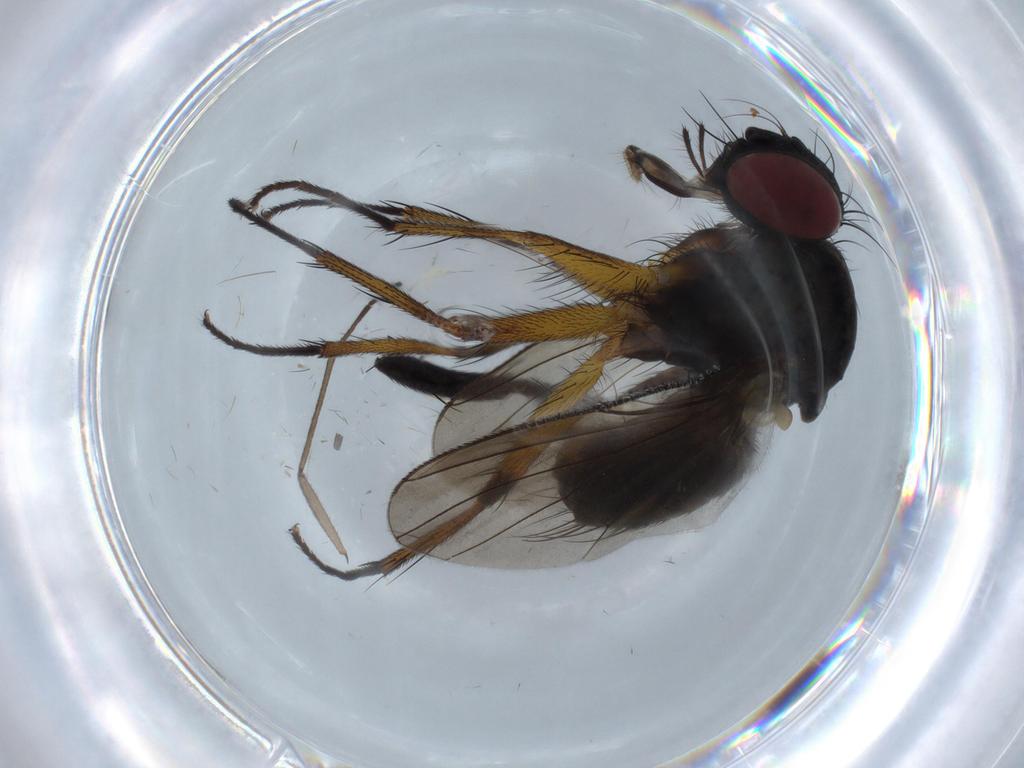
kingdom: Animalia
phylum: Arthropoda
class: Insecta
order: Diptera
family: Muscidae
